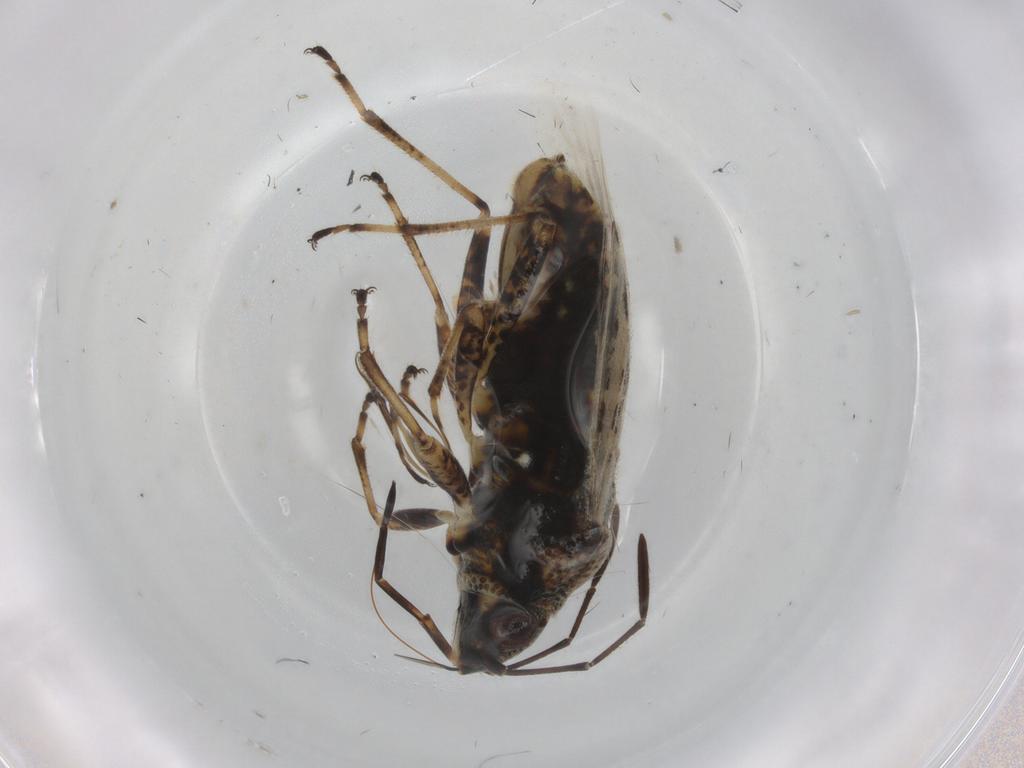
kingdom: Animalia
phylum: Arthropoda
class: Insecta
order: Hemiptera
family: Lygaeidae
